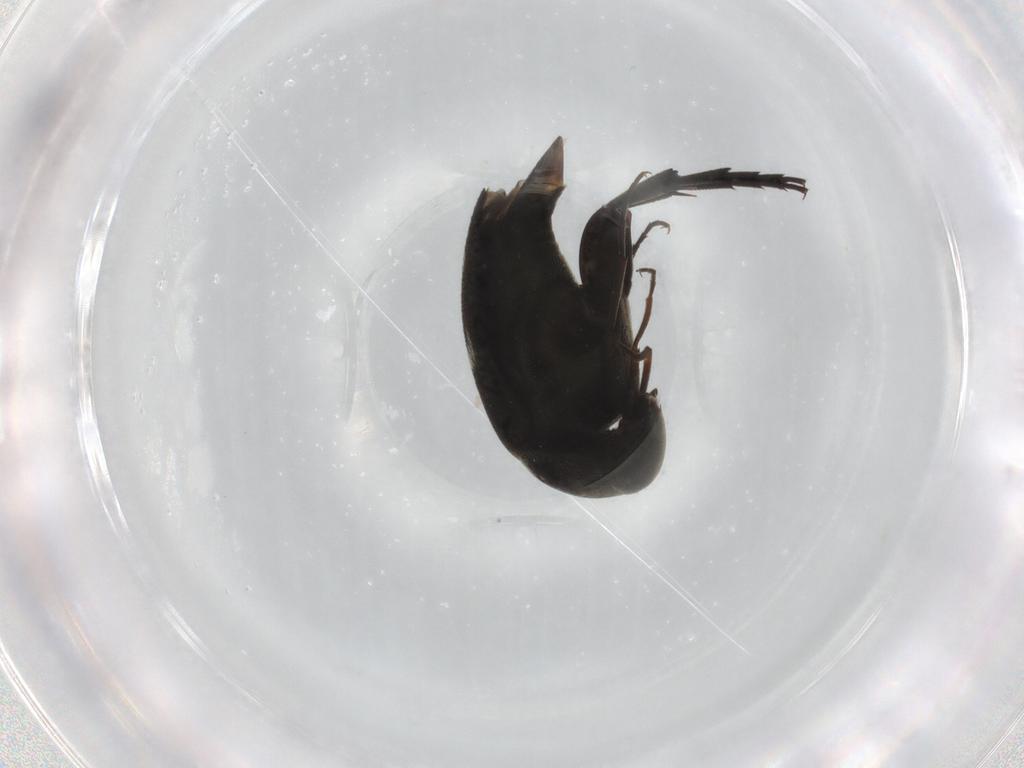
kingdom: Animalia
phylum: Arthropoda
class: Insecta
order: Coleoptera
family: Mordellidae
